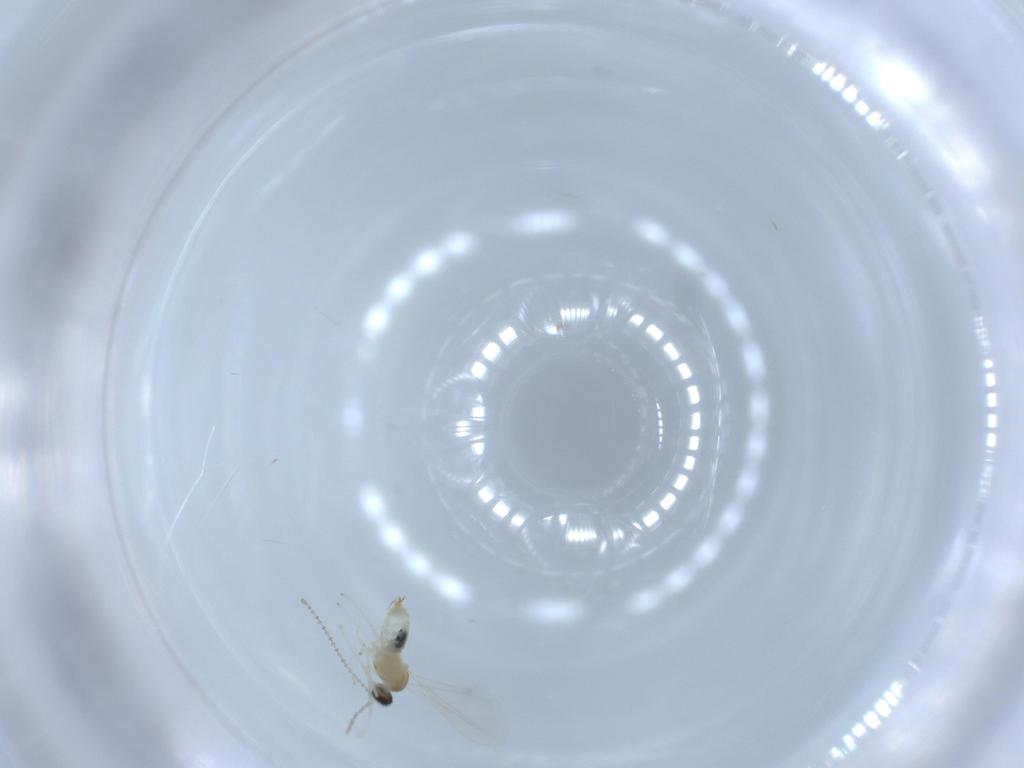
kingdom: Animalia
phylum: Arthropoda
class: Insecta
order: Diptera
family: Cecidomyiidae
